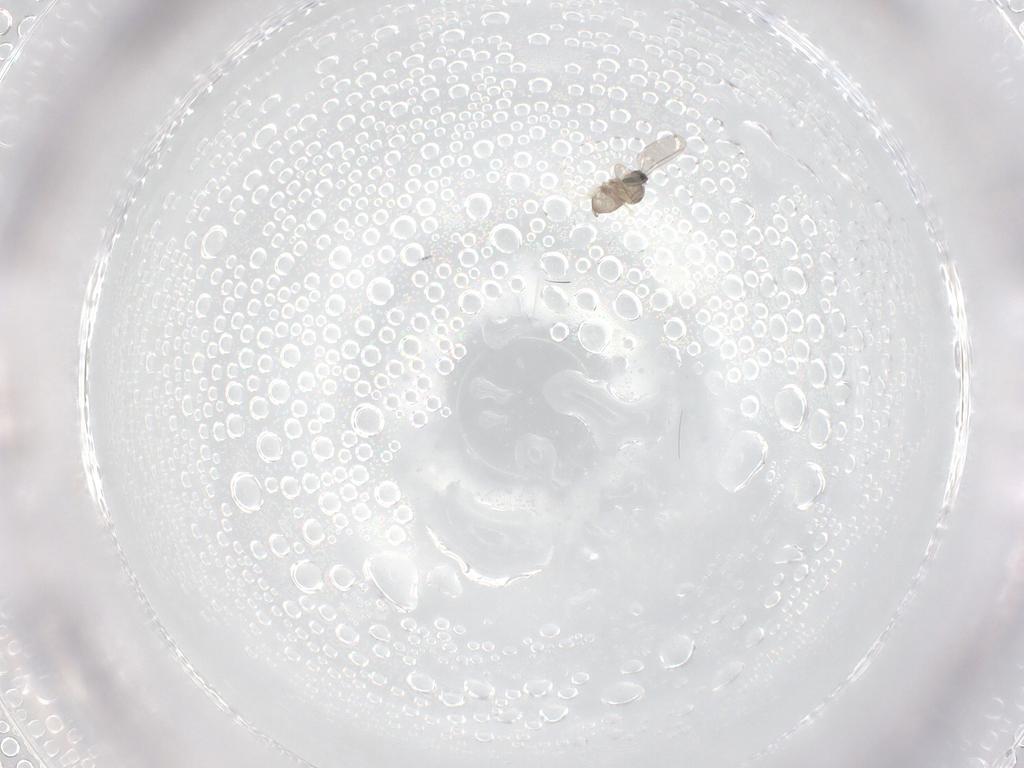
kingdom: Animalia
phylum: Arthropoda
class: Insecta
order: Diptera
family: Cecidomyiidae
